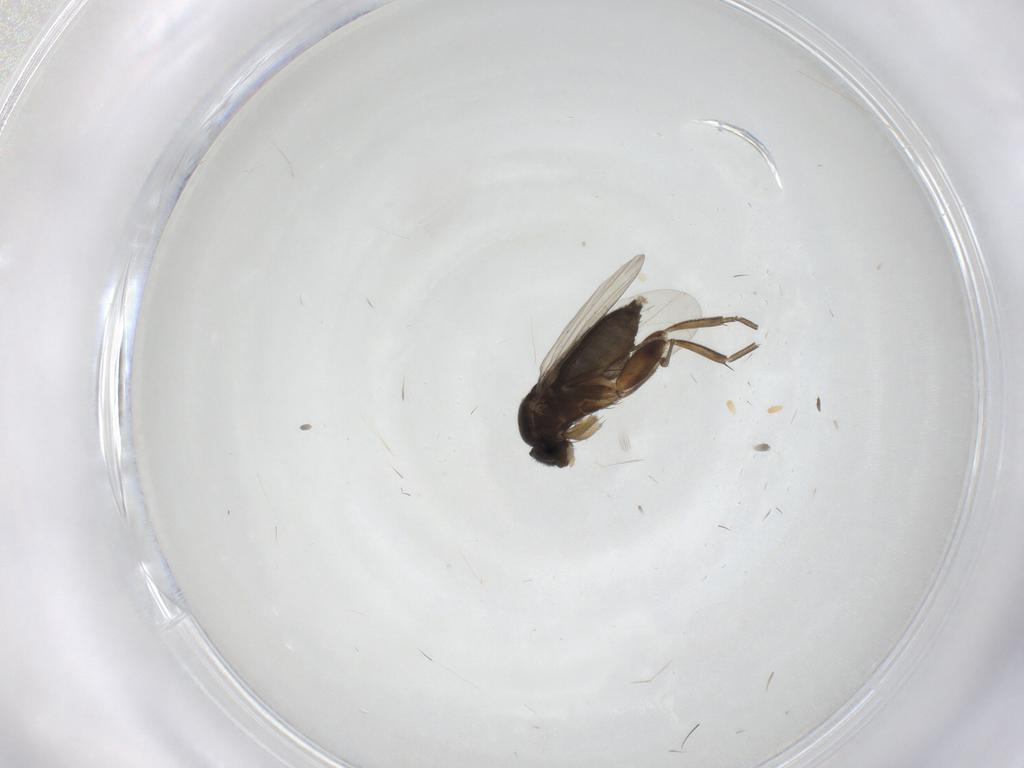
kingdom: Animalia
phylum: Arthropoda
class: Insecta
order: Diptera
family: Phoridae
